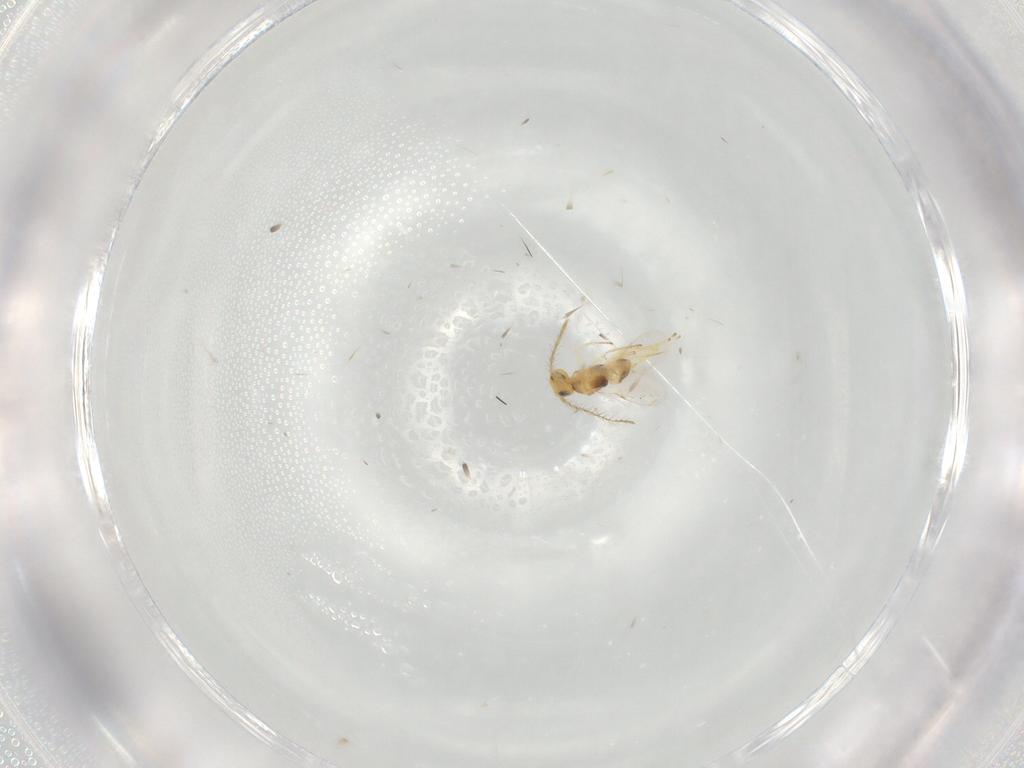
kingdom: Animalia
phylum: Arthropoda
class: Insecta
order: Hymenoptera
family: Encyrtidae
